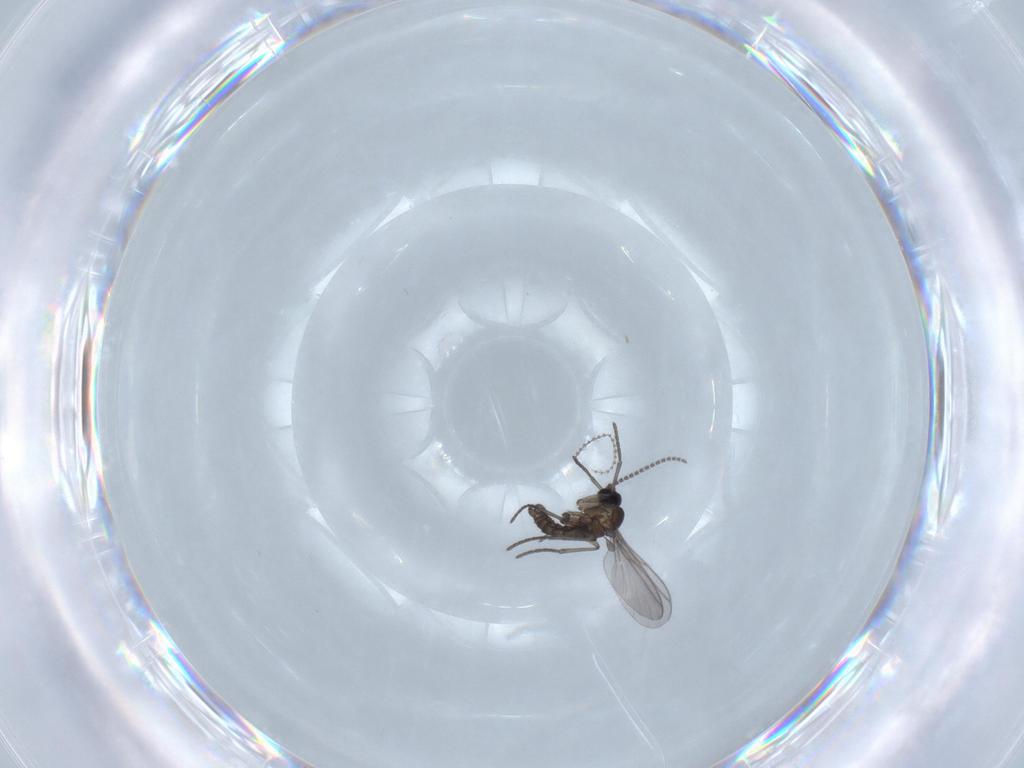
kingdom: Animalia
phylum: Arthropoda
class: Insecta
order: Diptera
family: Cecidomyiidae
